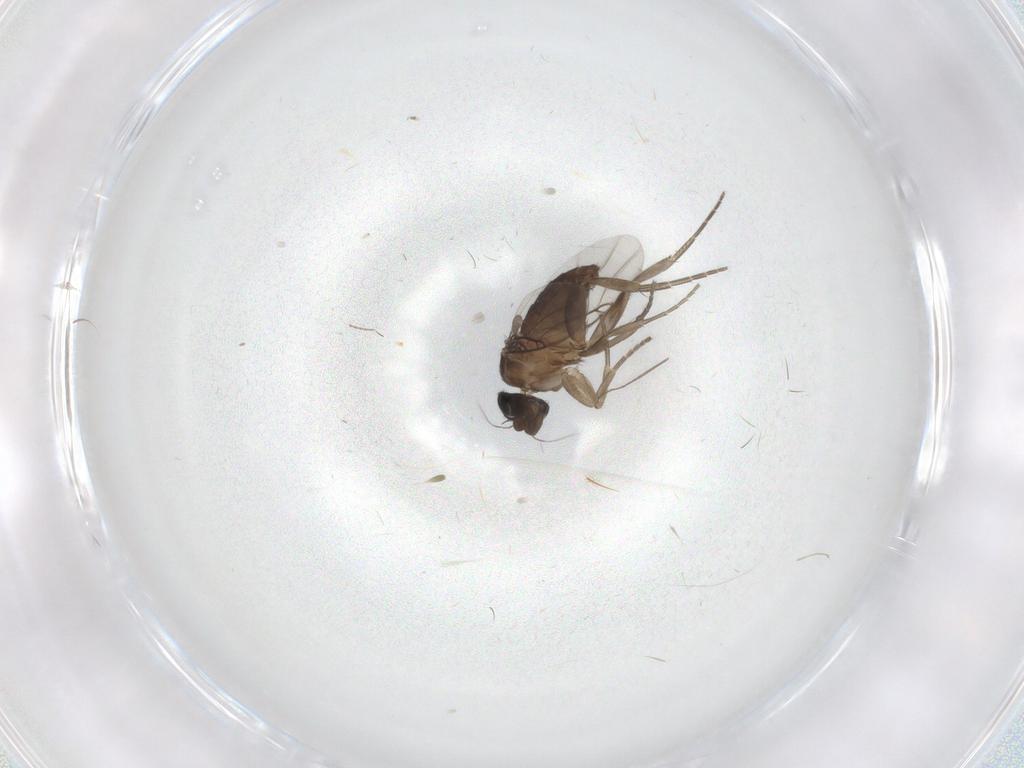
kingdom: Animalia
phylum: Arthropoda
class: Insecta
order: Diptera
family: Phoridae
